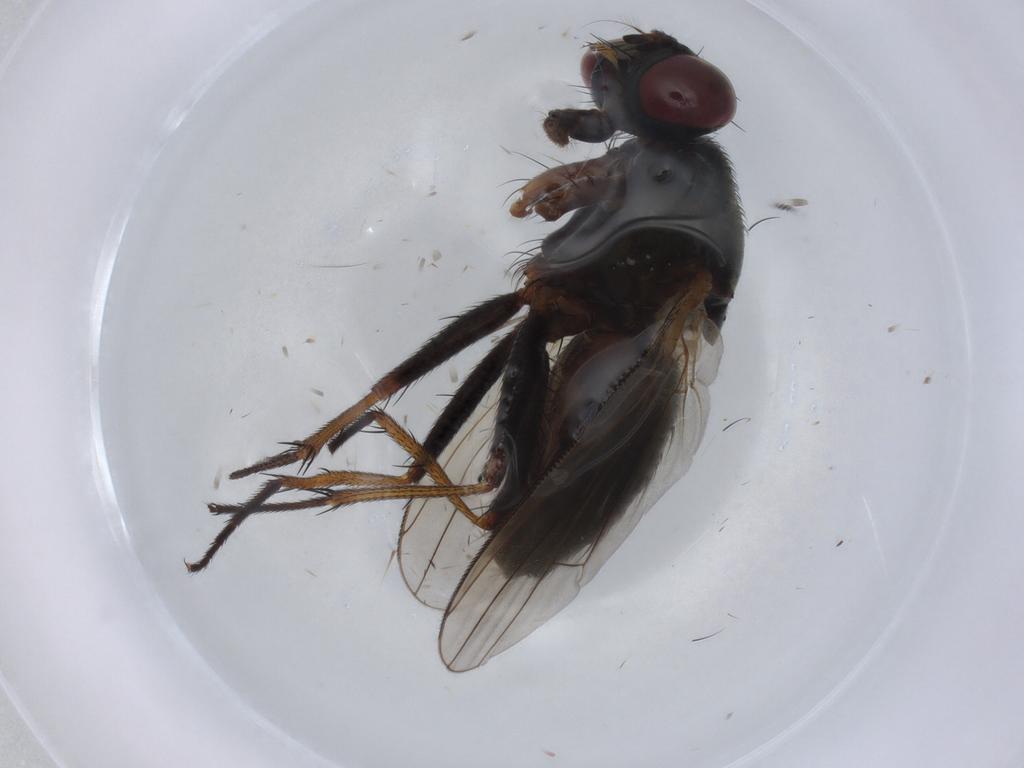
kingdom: Animalia
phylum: Arthropoda
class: Insecta
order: Diptera
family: Muscidae
